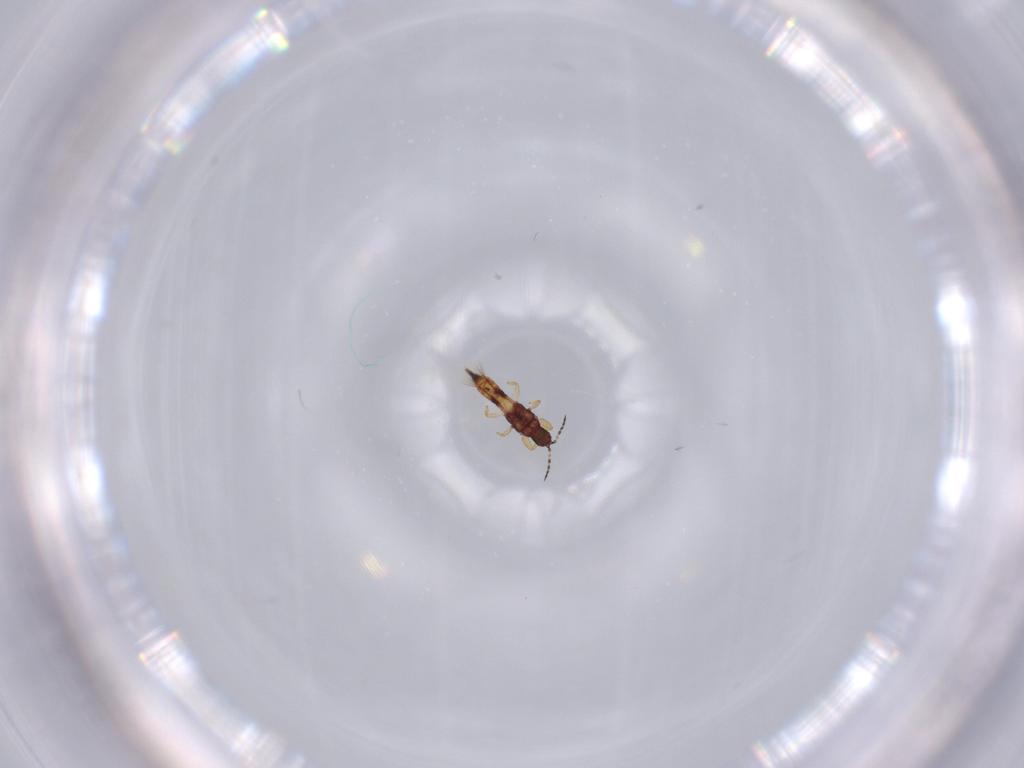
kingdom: Animalia
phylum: Arthropoda
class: Insecta
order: Thysanoptera
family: Phlaeothripidae
